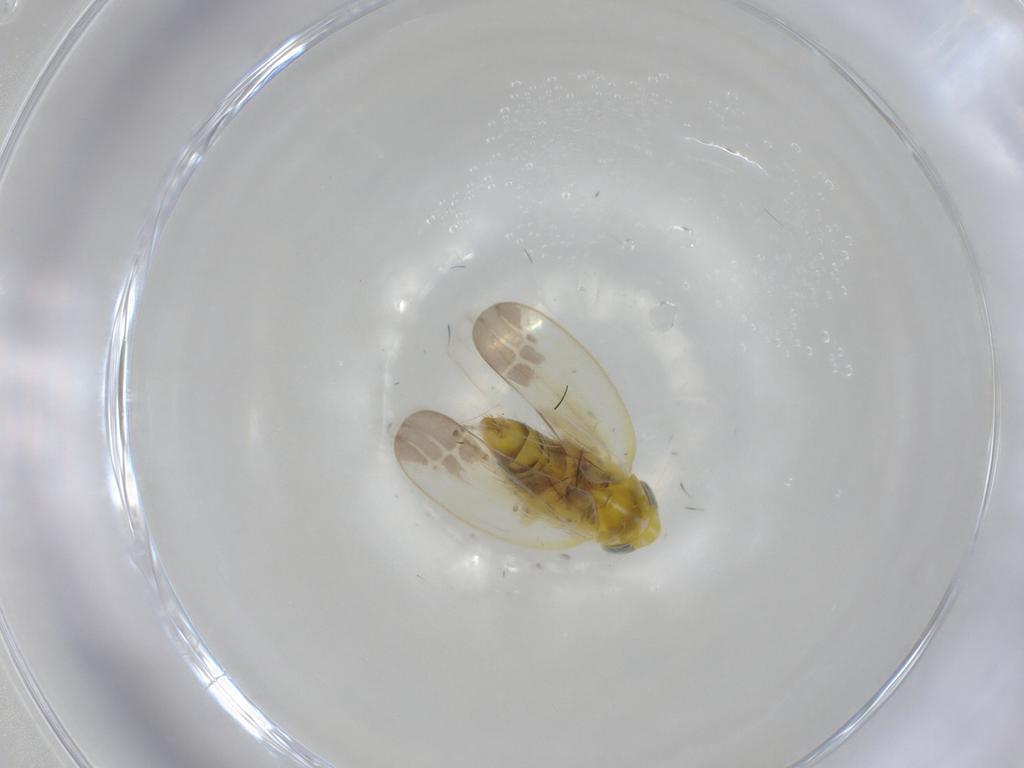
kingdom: Animalia
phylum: Arthropoda
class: Insecta
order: Hemiptera
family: Cicadellidae
